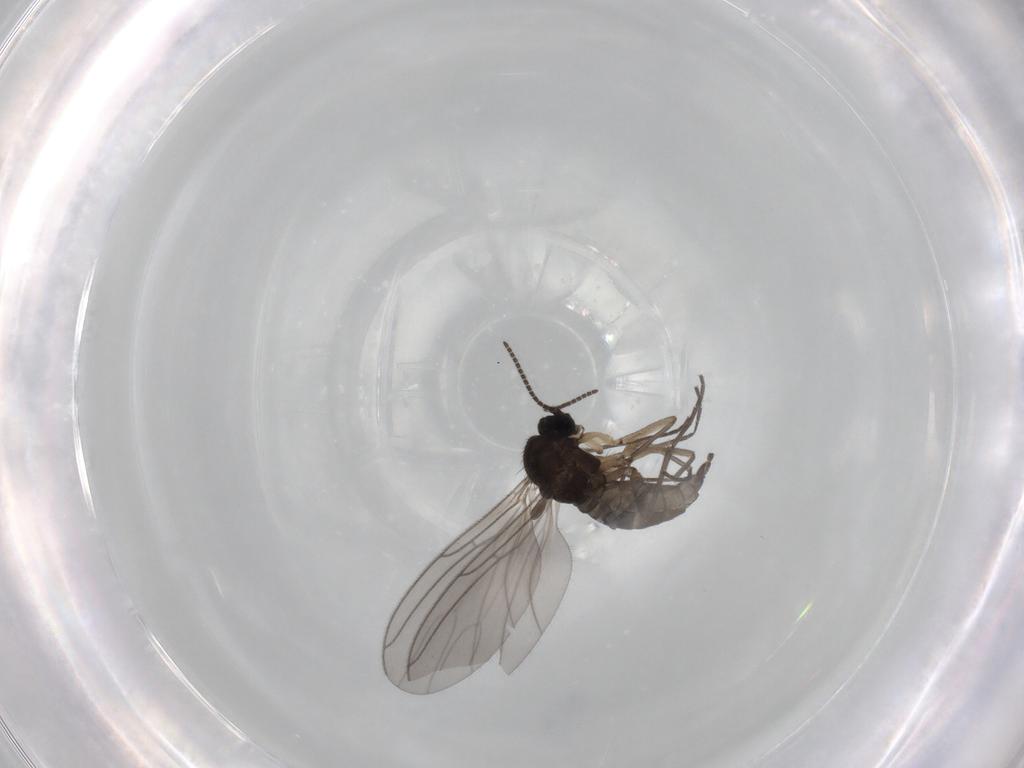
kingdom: Animalia
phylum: Arthropoda
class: Insecta
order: Diptera
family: Sciaridae
